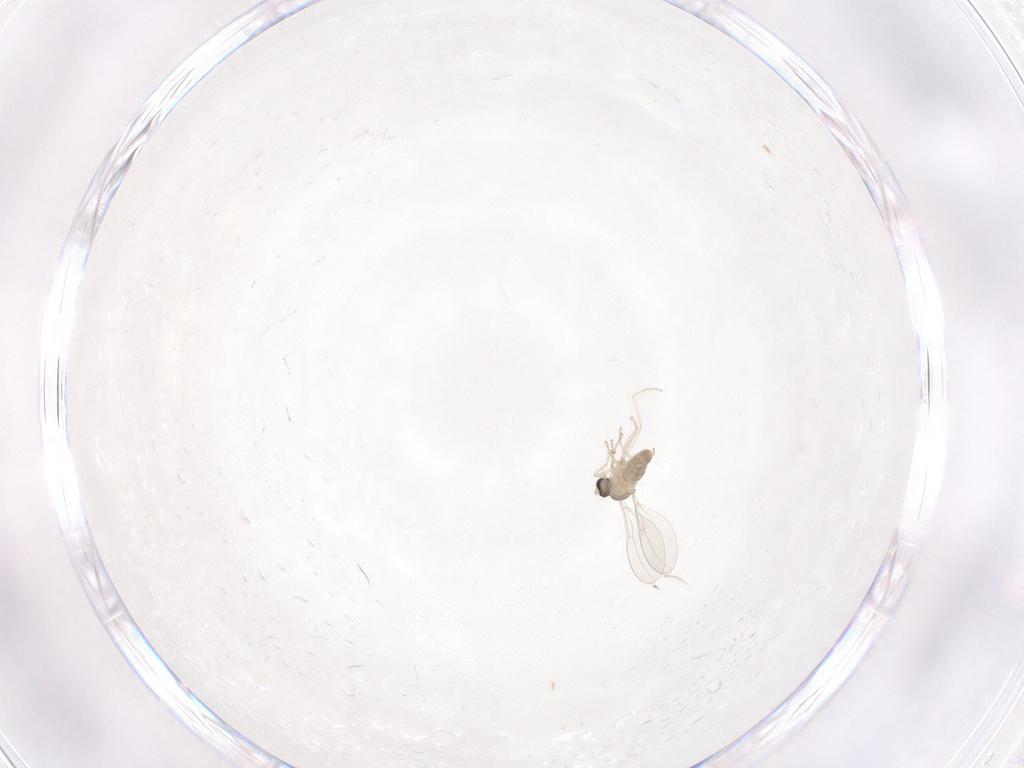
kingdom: Animalia
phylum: Arthropoda
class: Insecta
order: Diptera
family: Cecidomyiidae
